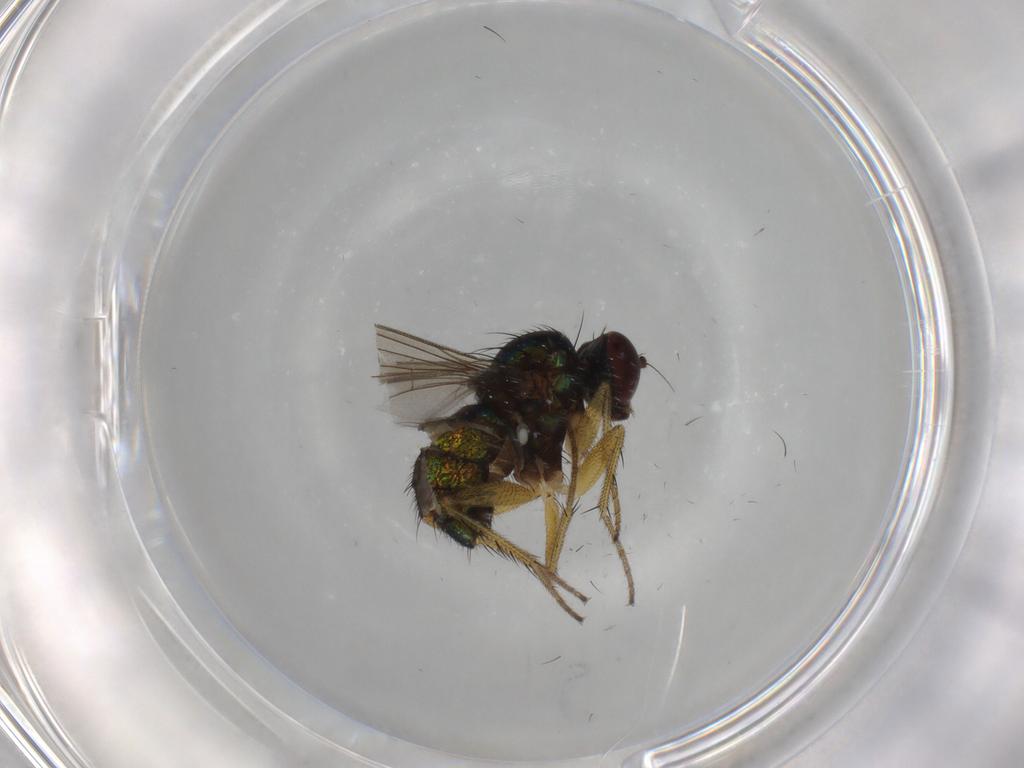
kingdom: Animalia
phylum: Arthropoda
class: Insecta
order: Diptera
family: Dolichopodidae
